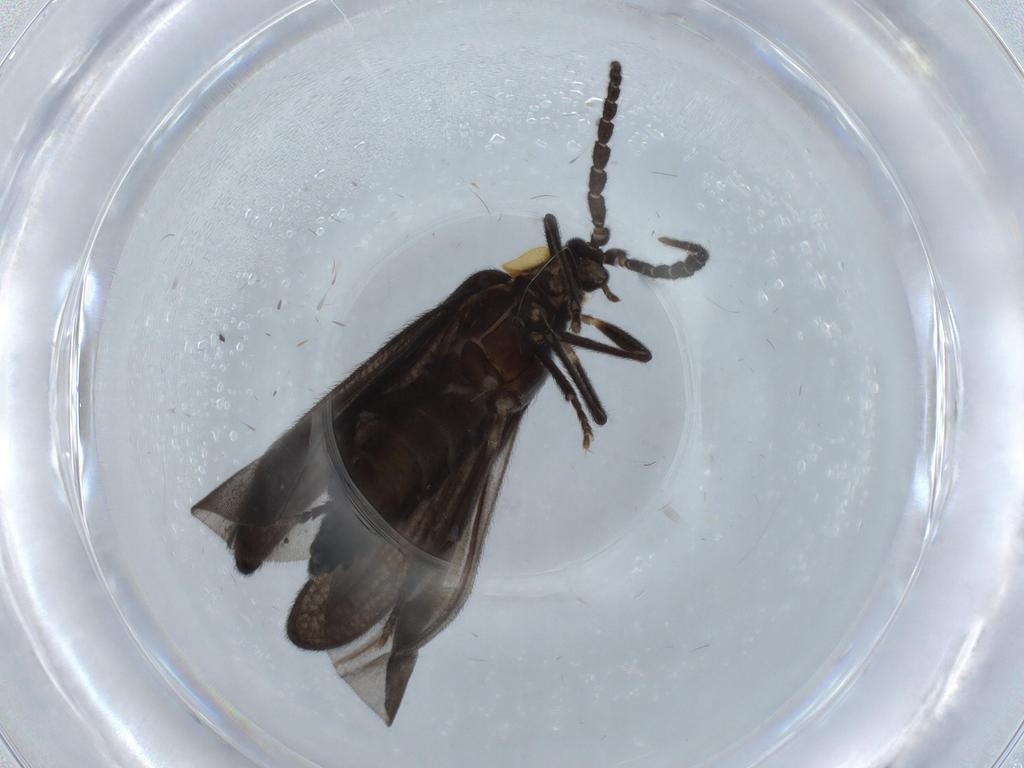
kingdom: Animalia
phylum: Arthropoda
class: Insecta
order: Coleoptera
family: Lycidae
